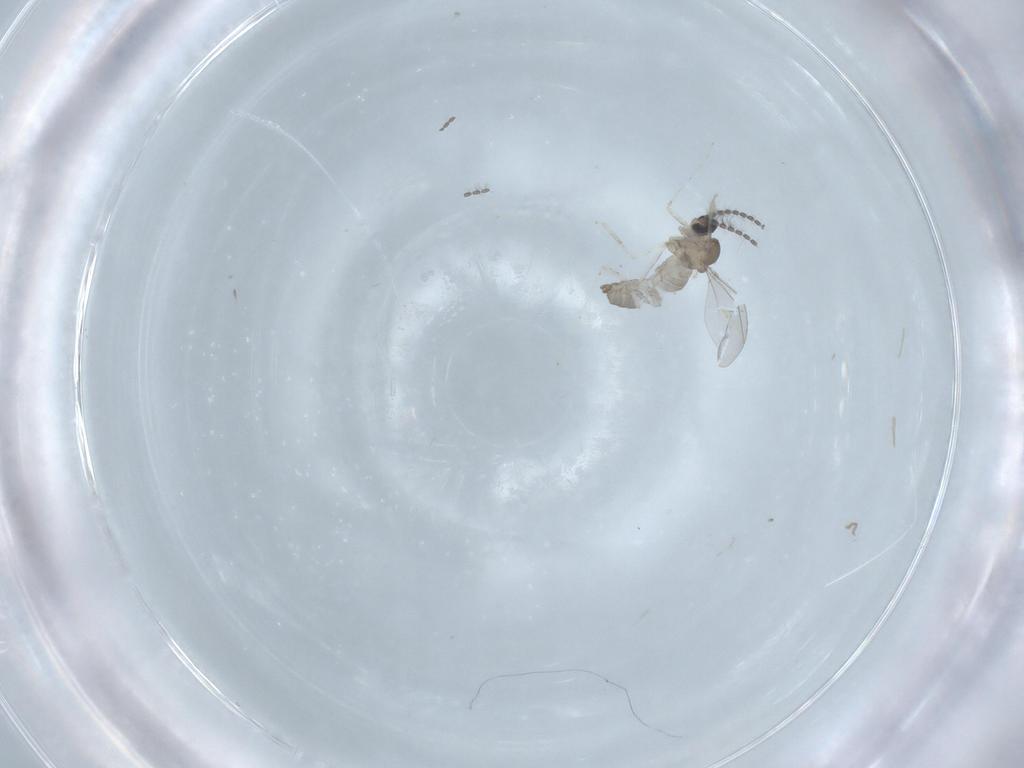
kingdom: Animalia
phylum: Arthropoda
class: Insecta
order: Diptera
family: Cecidomyiidae
